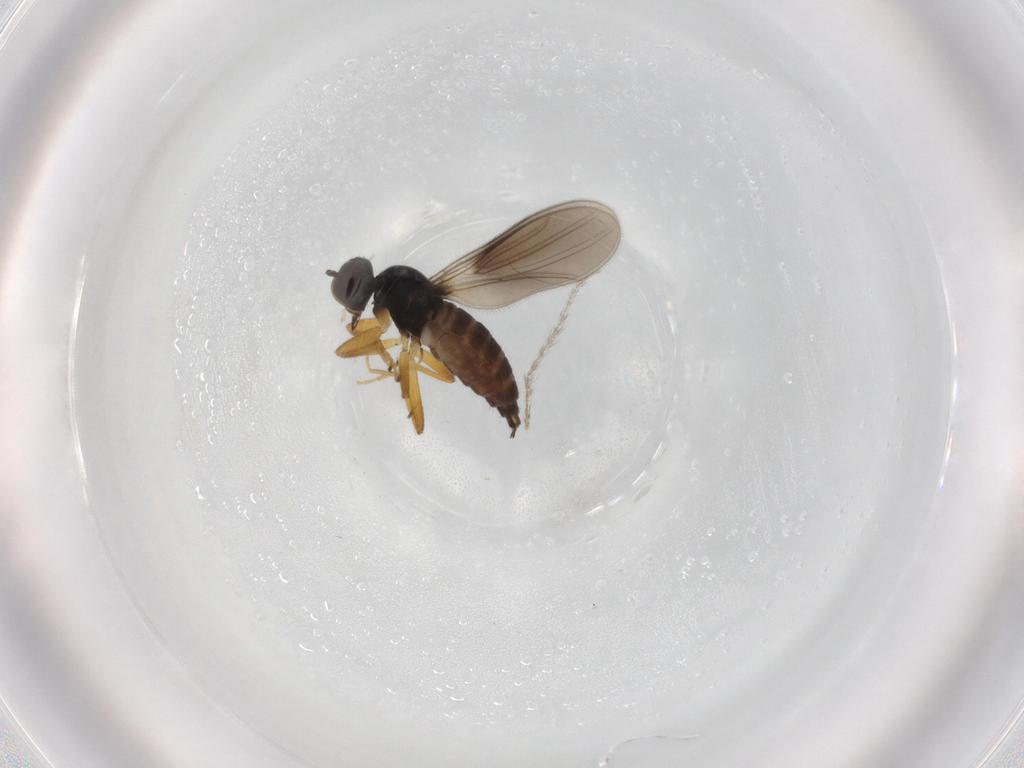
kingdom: Animalia
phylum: Arthropoda
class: Insecta
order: Diptera
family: Hybotidae
